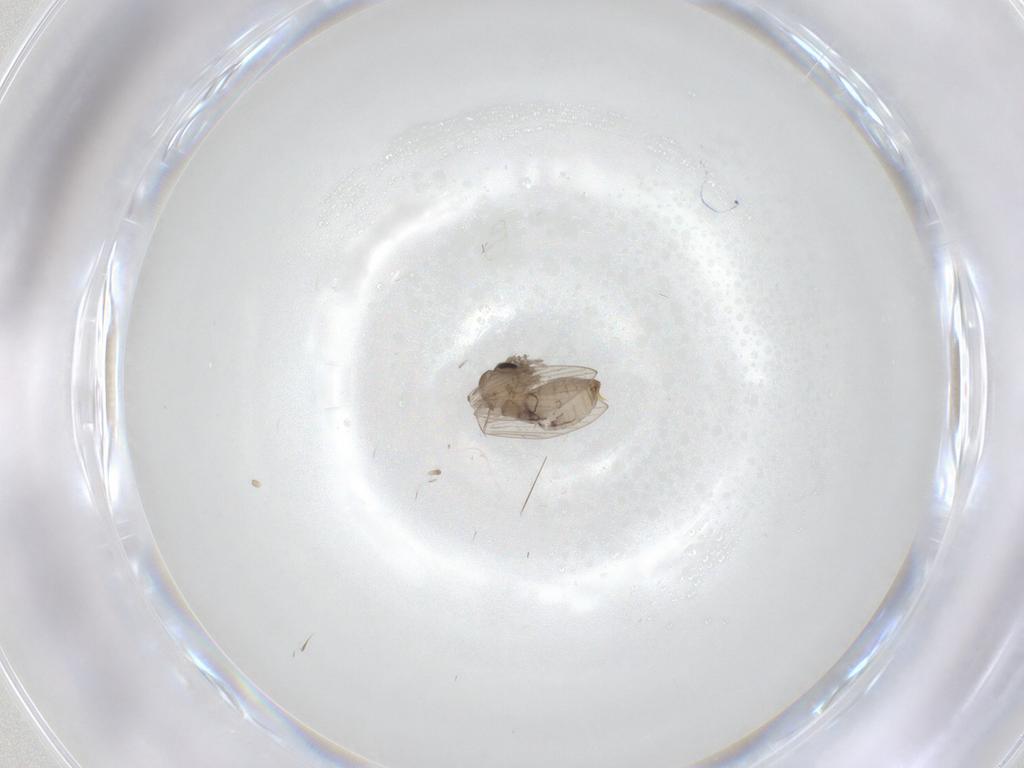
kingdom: Animalia
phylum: Arthropoda
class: Insecta
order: Diptera
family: Psychodidae
